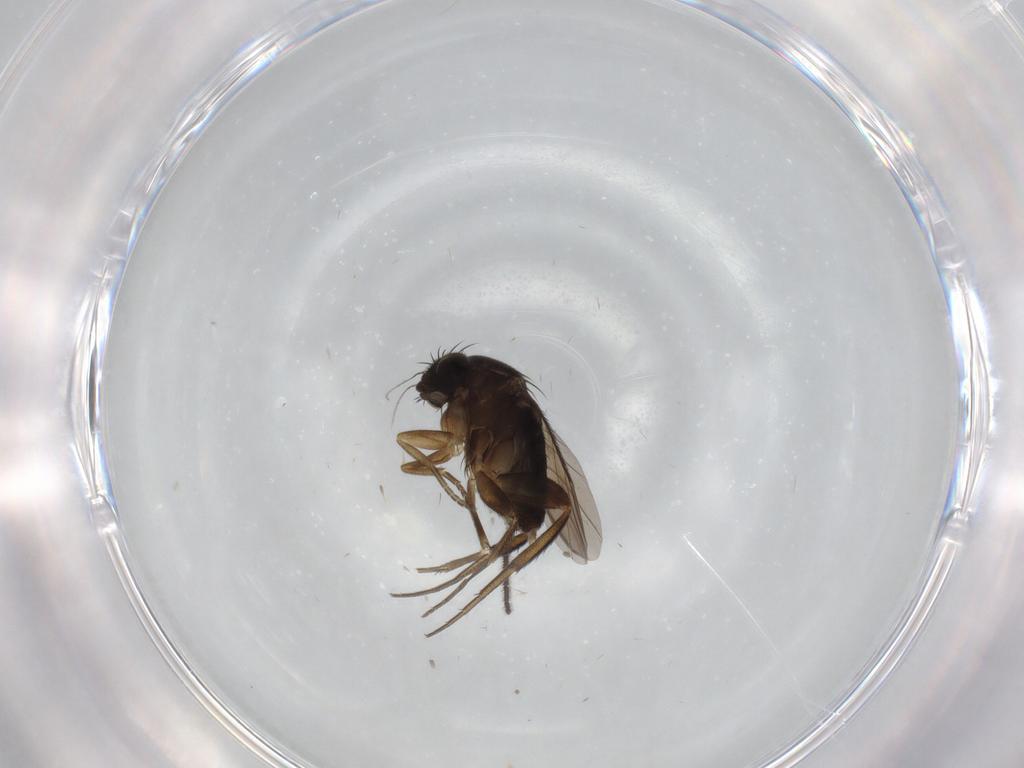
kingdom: Animalia
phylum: Arthropoda
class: Insecta
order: Diptera
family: Phoridae
